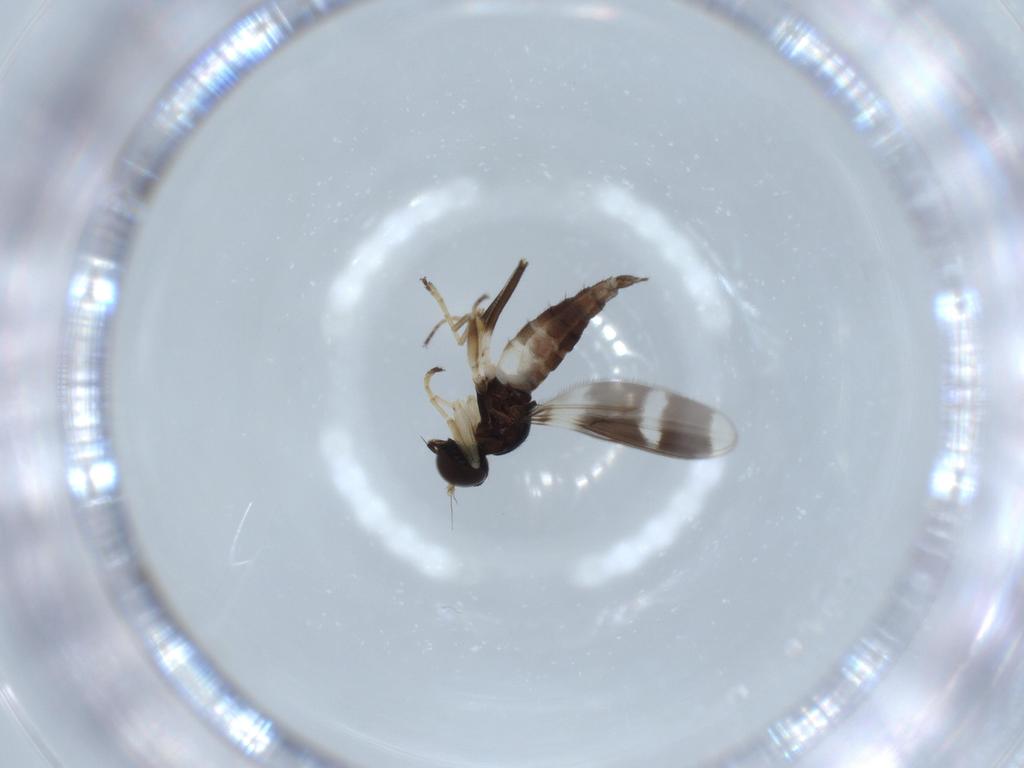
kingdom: Animalia
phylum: Arthropoda
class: Insecta
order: Diptera
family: Hybotidae
